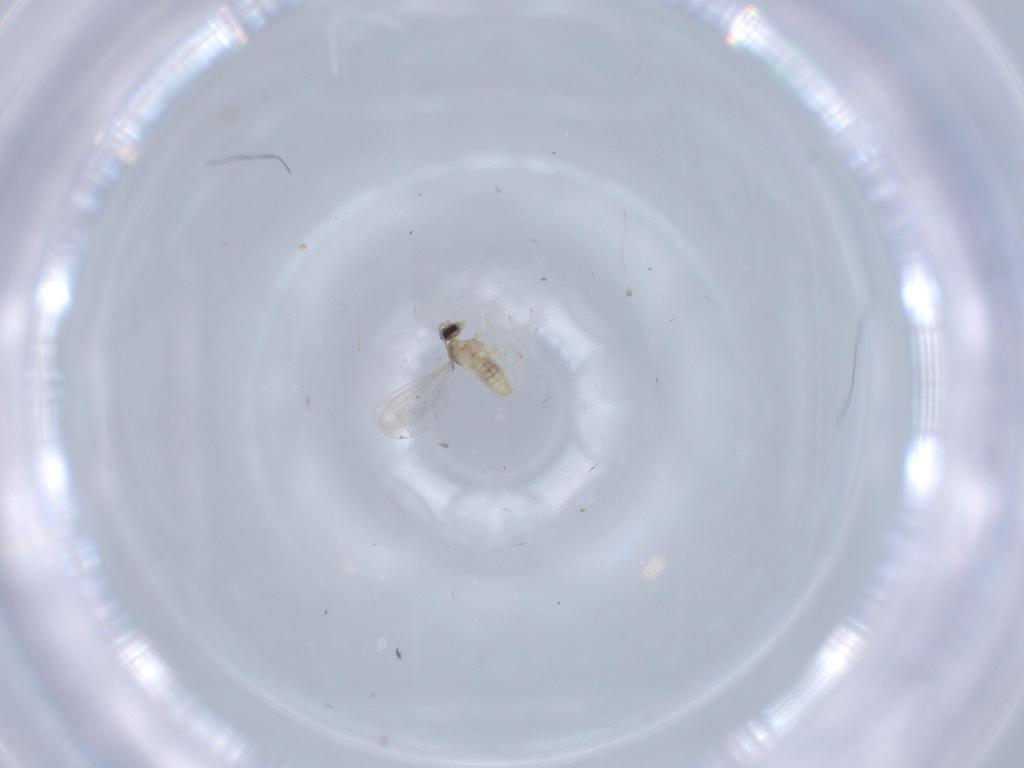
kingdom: Animalia
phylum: Arthropoda
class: Insecta
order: Diptera
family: Cecidomyiidae
